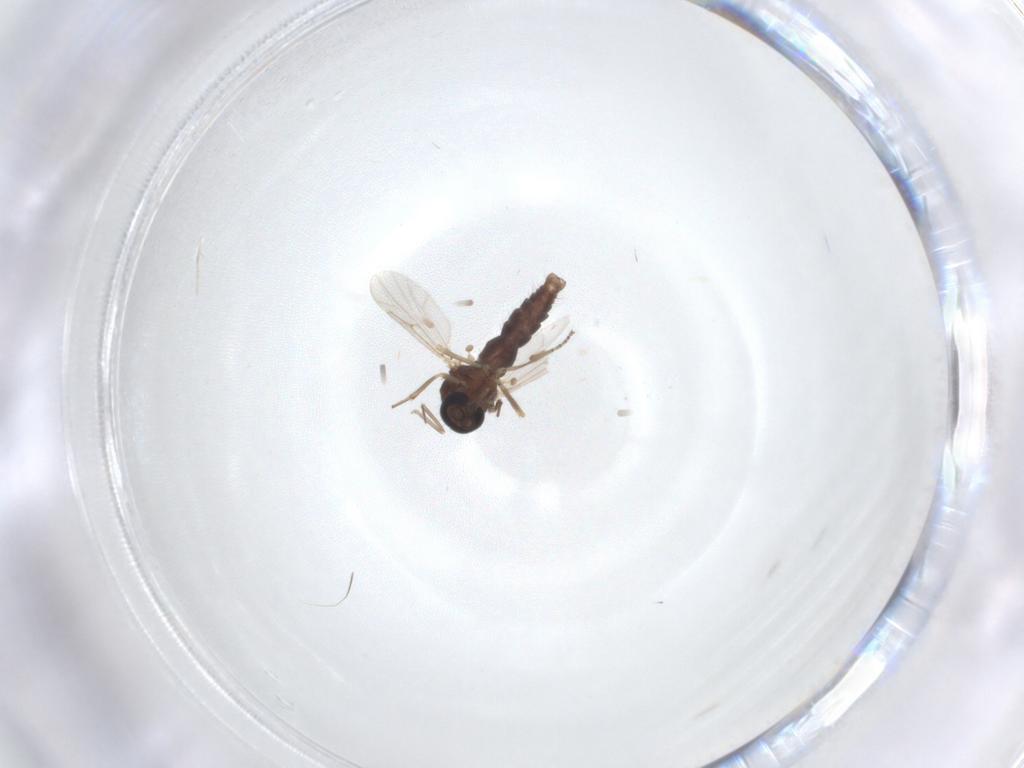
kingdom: Animalia
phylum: Arthropoda
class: Insecta
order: Diptera
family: Ceratopogonidae
